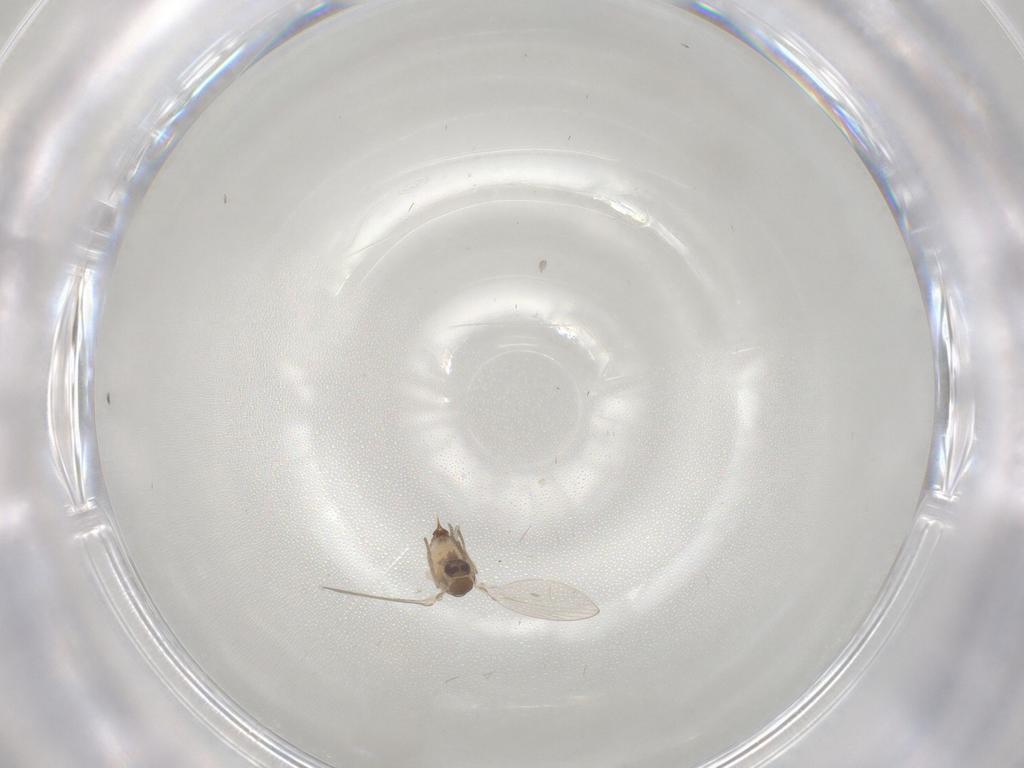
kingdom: Animalia
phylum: Arthropoda
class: Insecta
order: Diptera
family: Psychodidae
